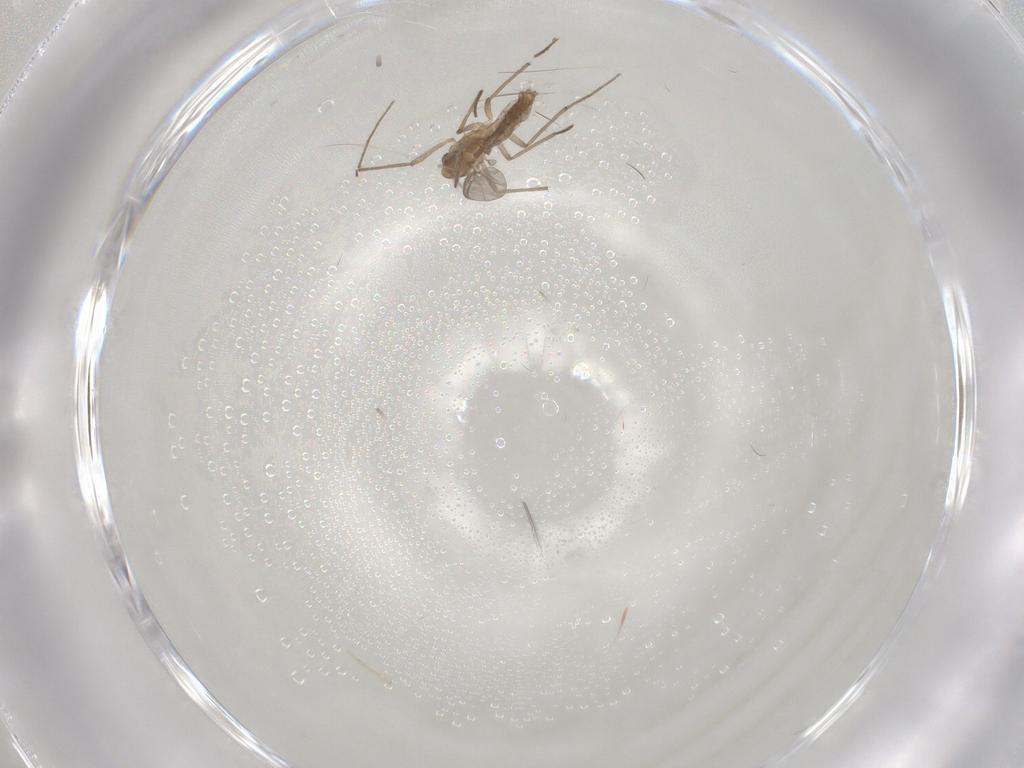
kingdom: Animalia
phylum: Arthropoda
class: Insecta
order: Diptera
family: Chironomidae
